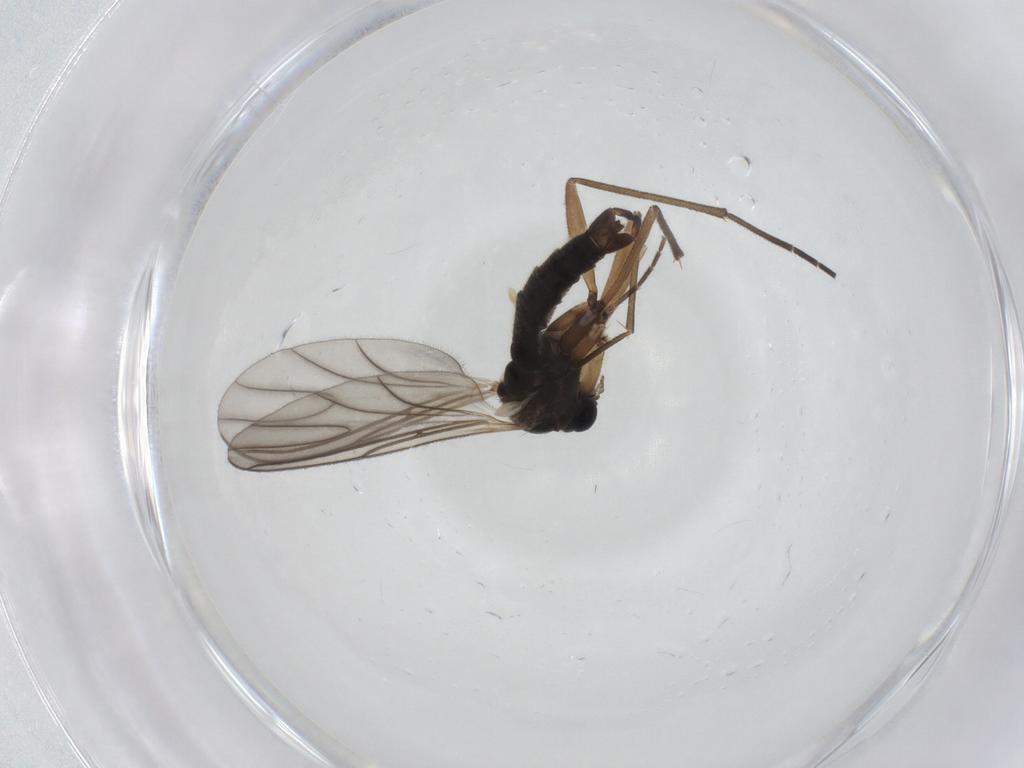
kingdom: Animalia
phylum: Arthropoda
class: Insecta
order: Diptera
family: Sciaridae
